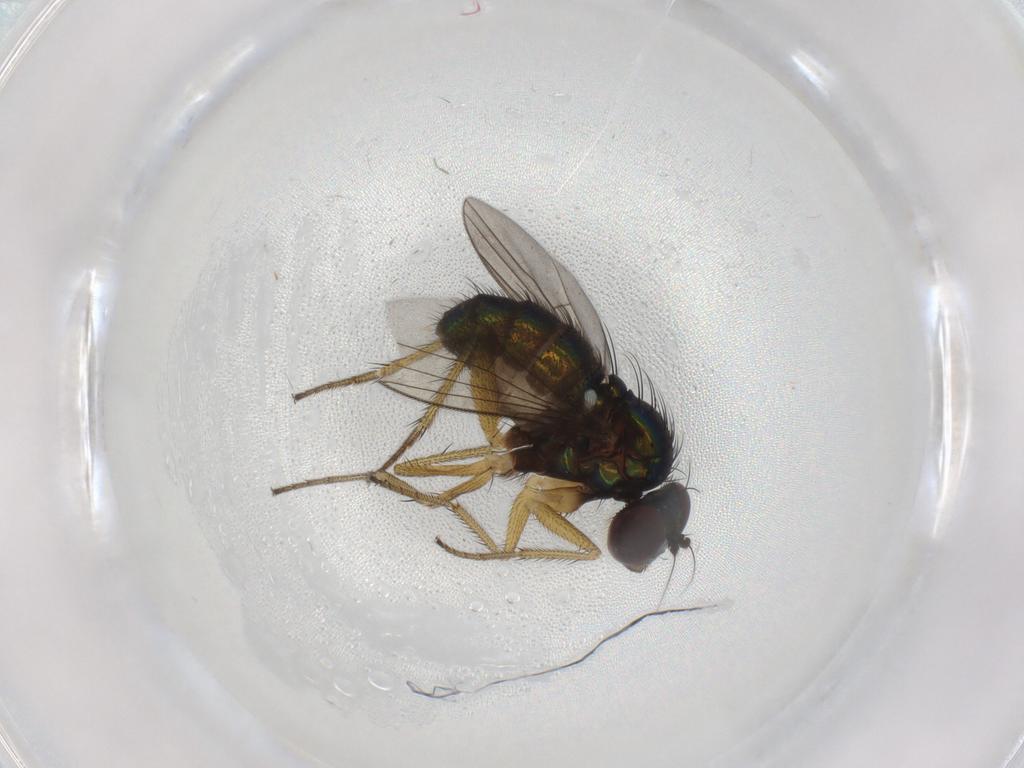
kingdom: Animalia
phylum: Arthropoda
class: Insecta
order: Diptera
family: Dolichopodidae
